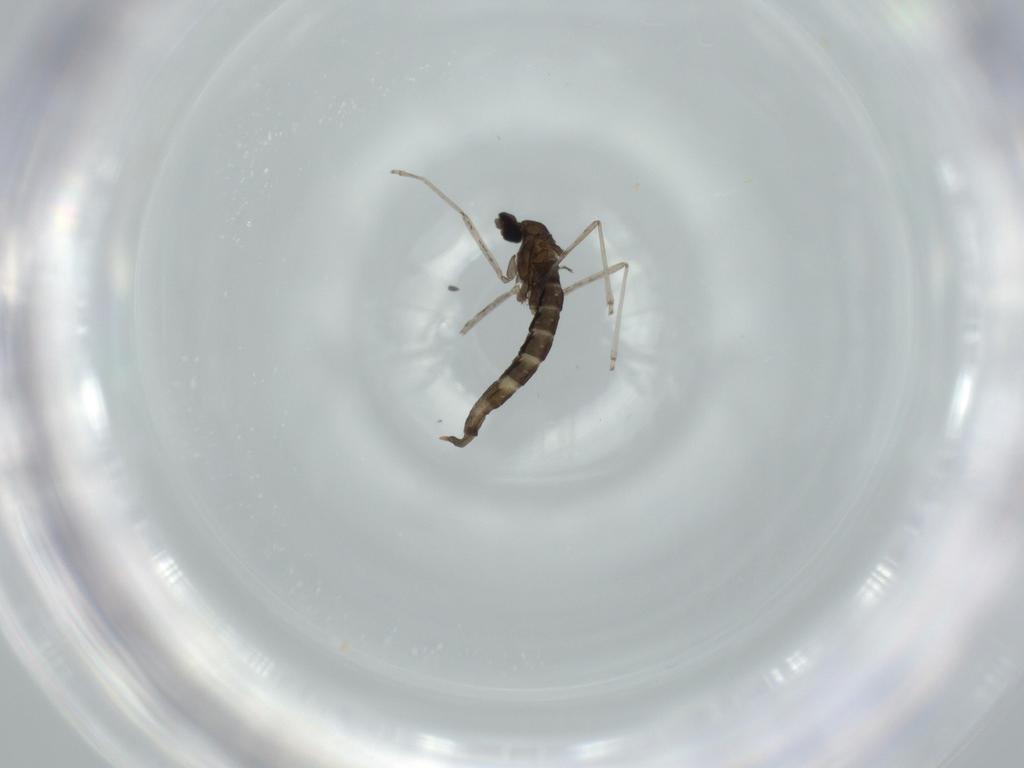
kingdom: Animalia
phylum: Arthropoda
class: Insecta
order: Diptera
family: Cecidomyiidae
